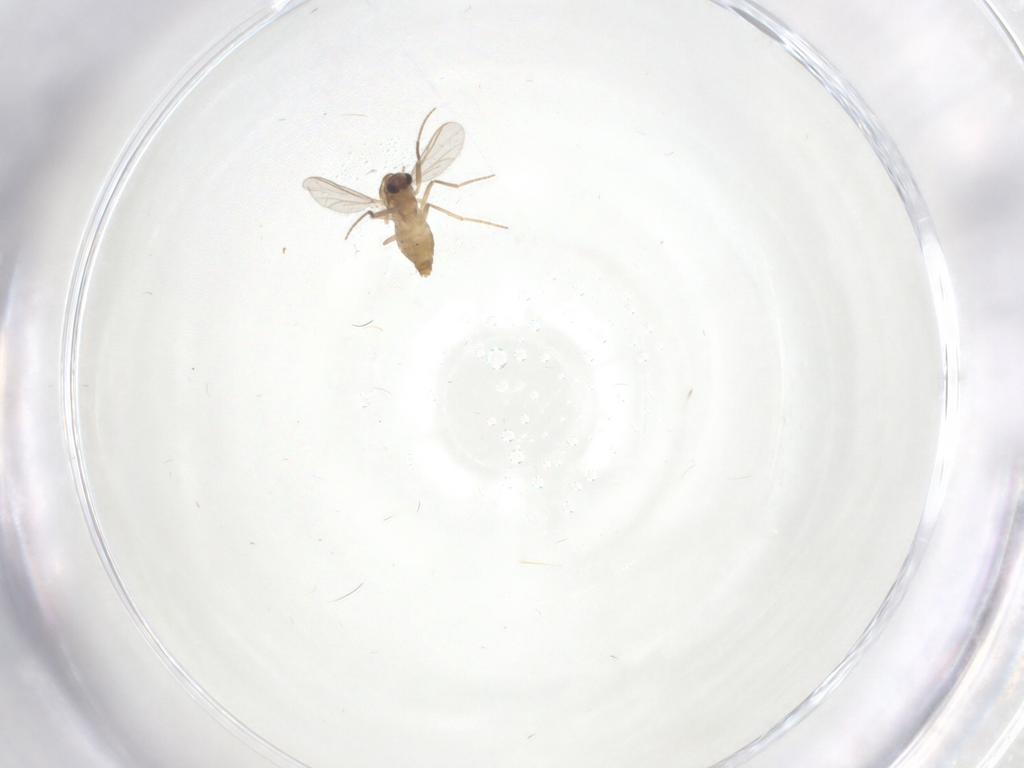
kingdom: Animalia
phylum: Arthropoda
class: Insecta
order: Diptera
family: Chironomidae
